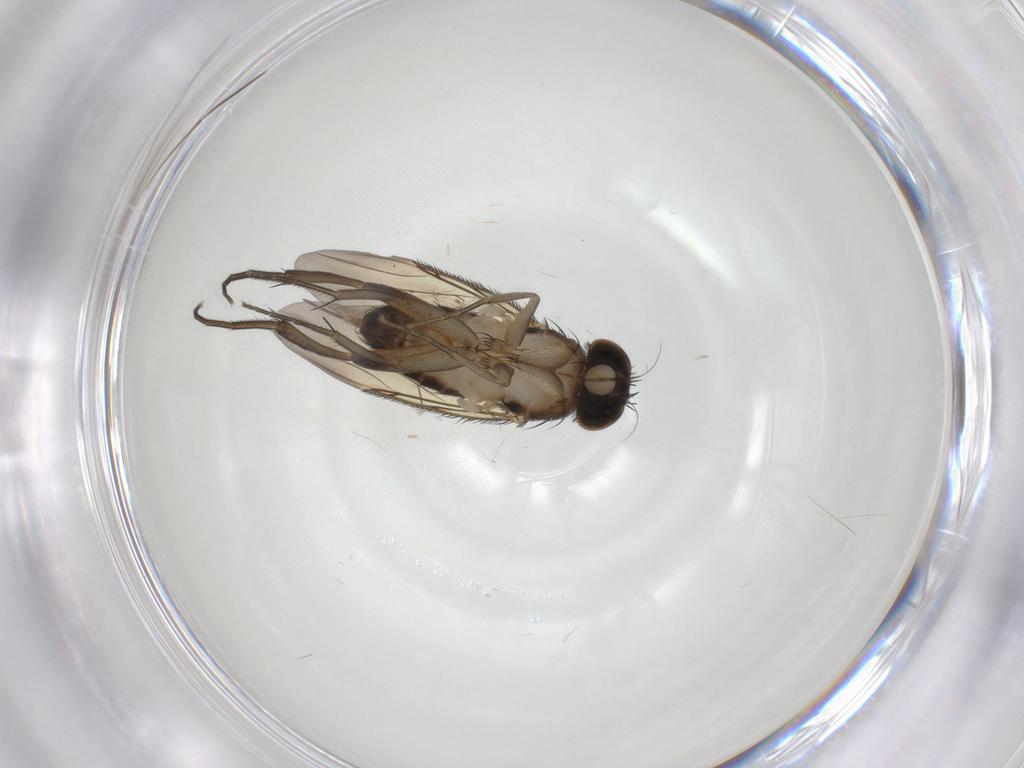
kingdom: Animalia
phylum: Arthropoda
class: Insecta
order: Diptera
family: Phoridae
